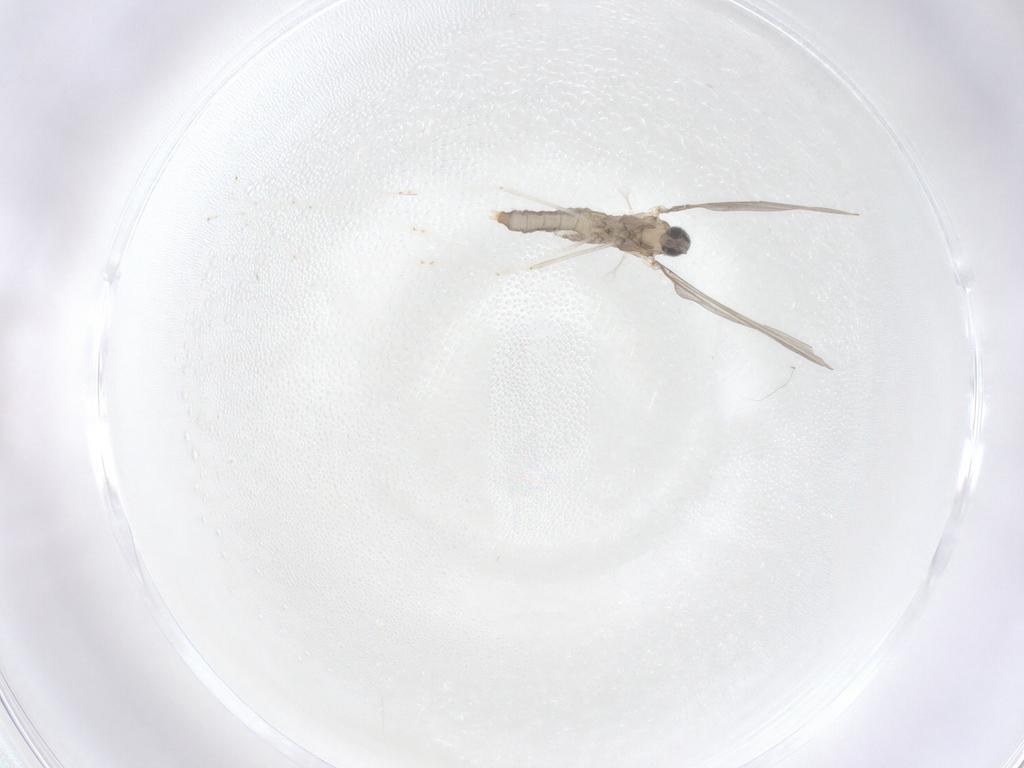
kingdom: Animalia
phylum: Arthropoda
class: Insecta
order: Diptera
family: Cecidomyiidae
